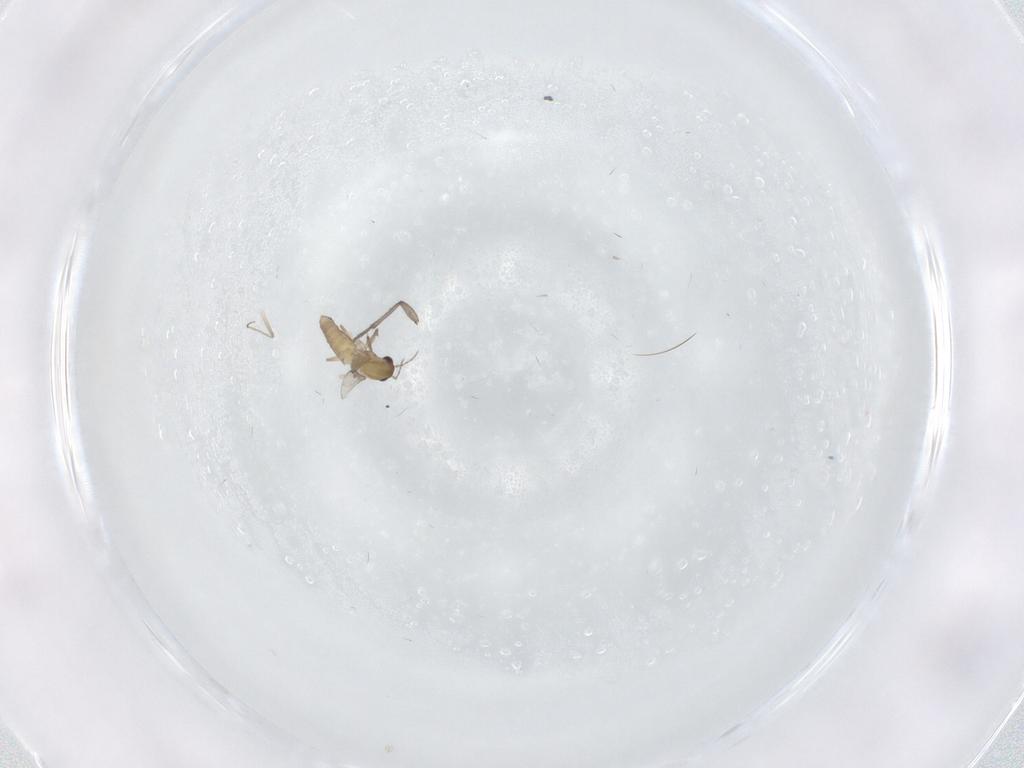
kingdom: Animalia
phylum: Arthropoda
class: Insecta
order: Diptera
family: Chironomidae
